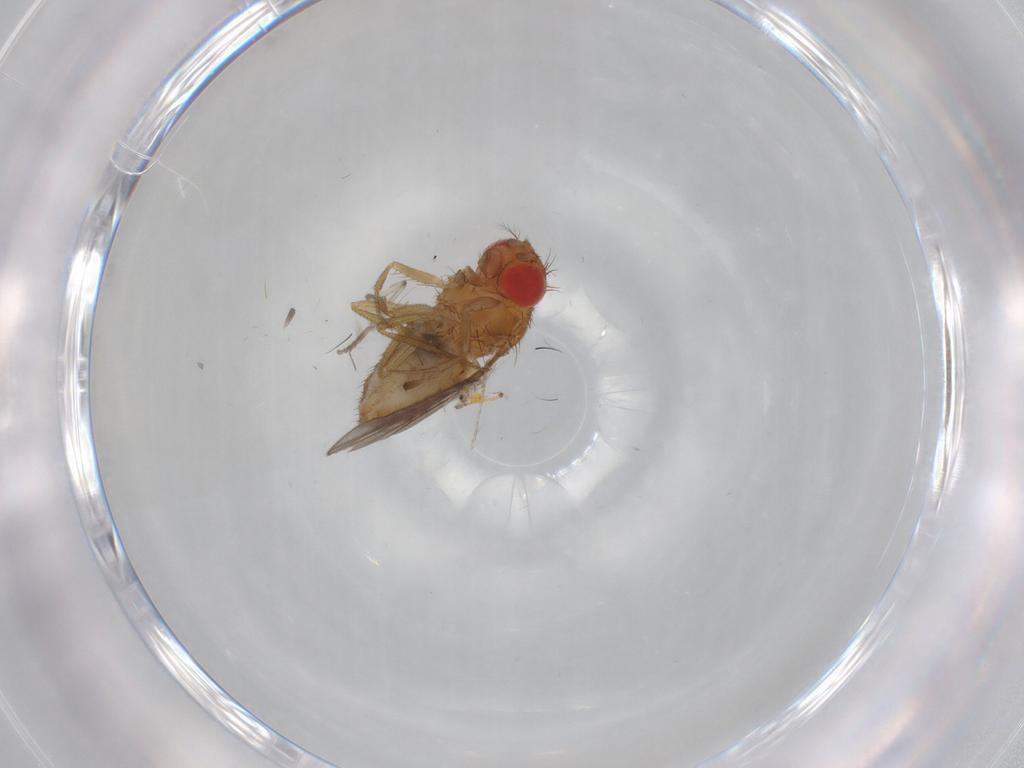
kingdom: Animalia
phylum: Arthropoda
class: Insecta
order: Diptera
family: Drosophilidae
